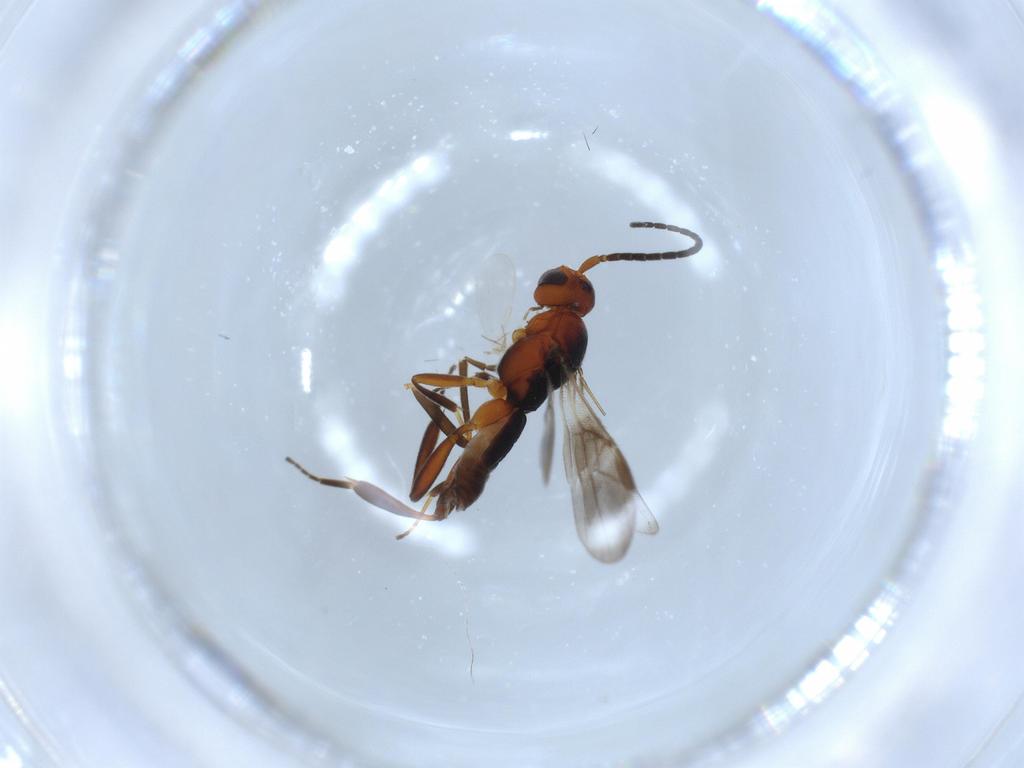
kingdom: Animalia
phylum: Arthropoda
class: Insecta
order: Hymenoptera
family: Braconidae
